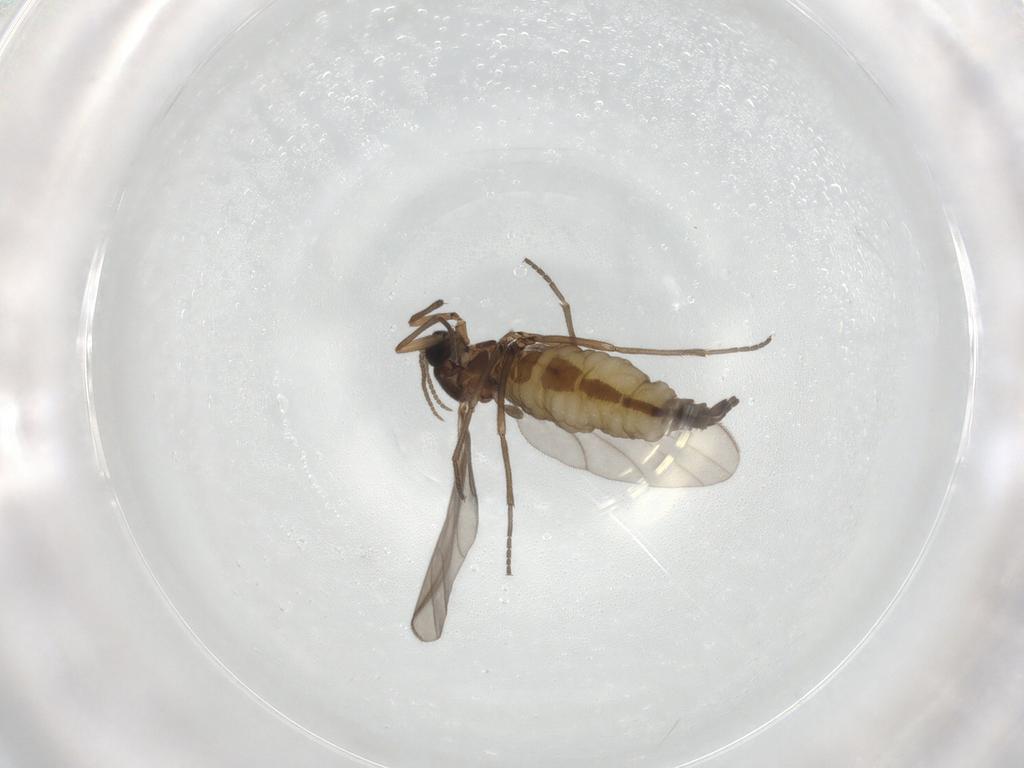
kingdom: Animalia
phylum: Arthropoda
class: Insecta
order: Diptera
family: Sciaridae
